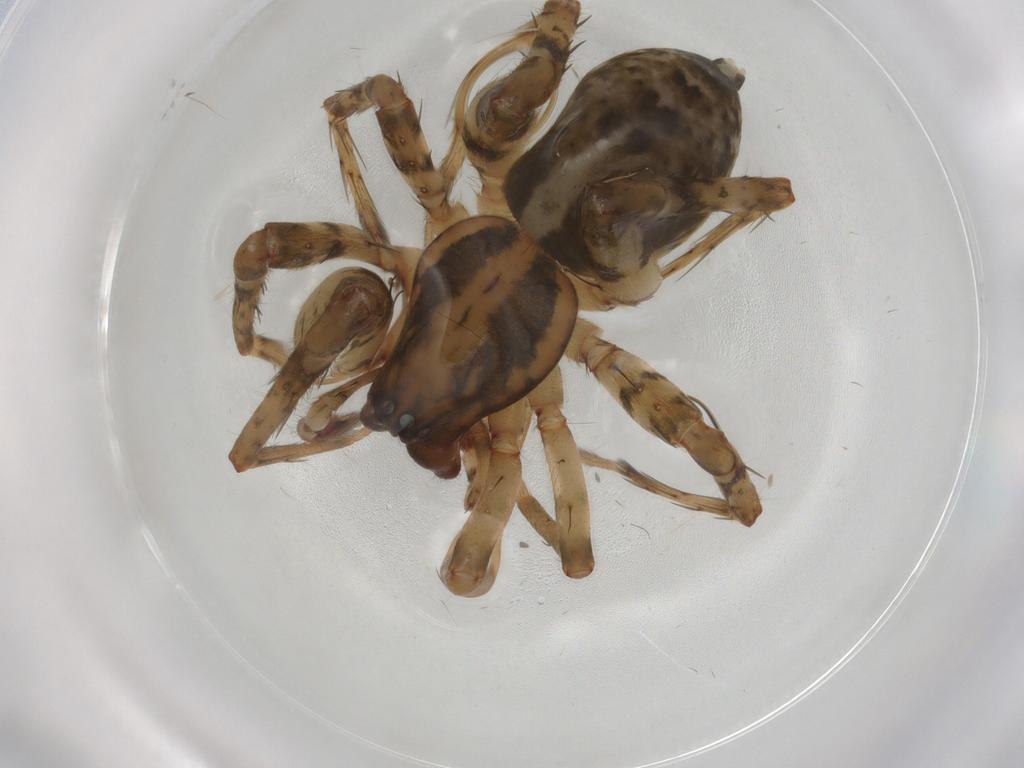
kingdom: Animalia
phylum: Arthropoda
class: Arachnida
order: Araneae
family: Anyphaenidae
